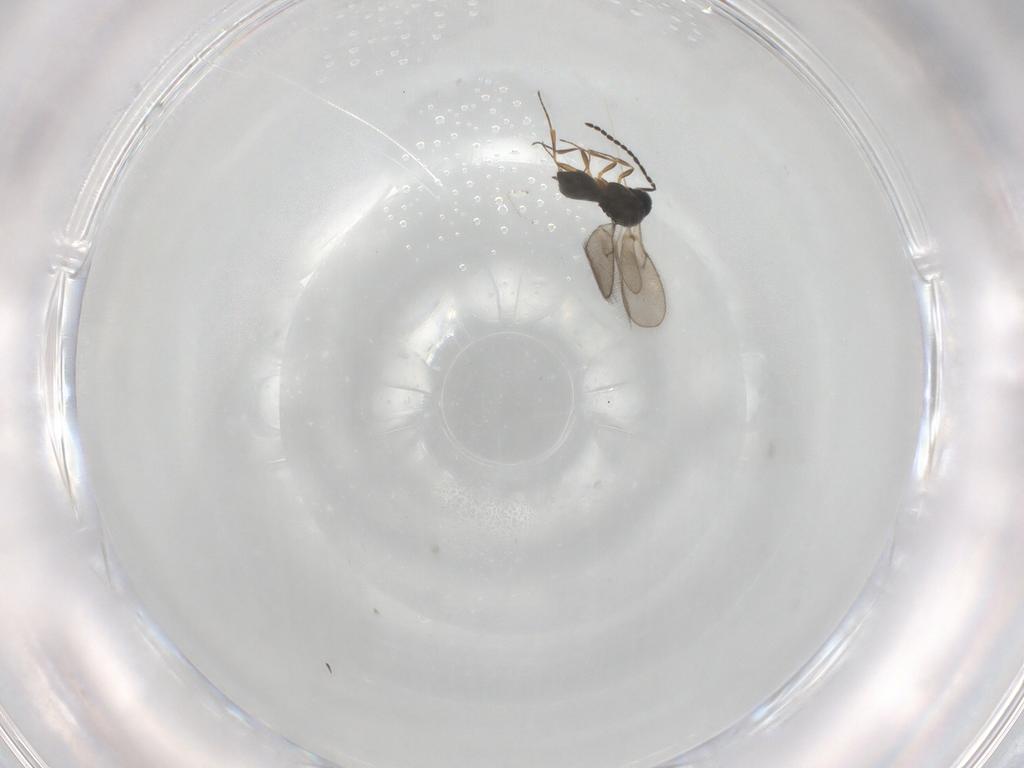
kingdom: Animalia
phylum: Arthropoda
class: Insecta
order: Hymenoptera
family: Scelionidae
